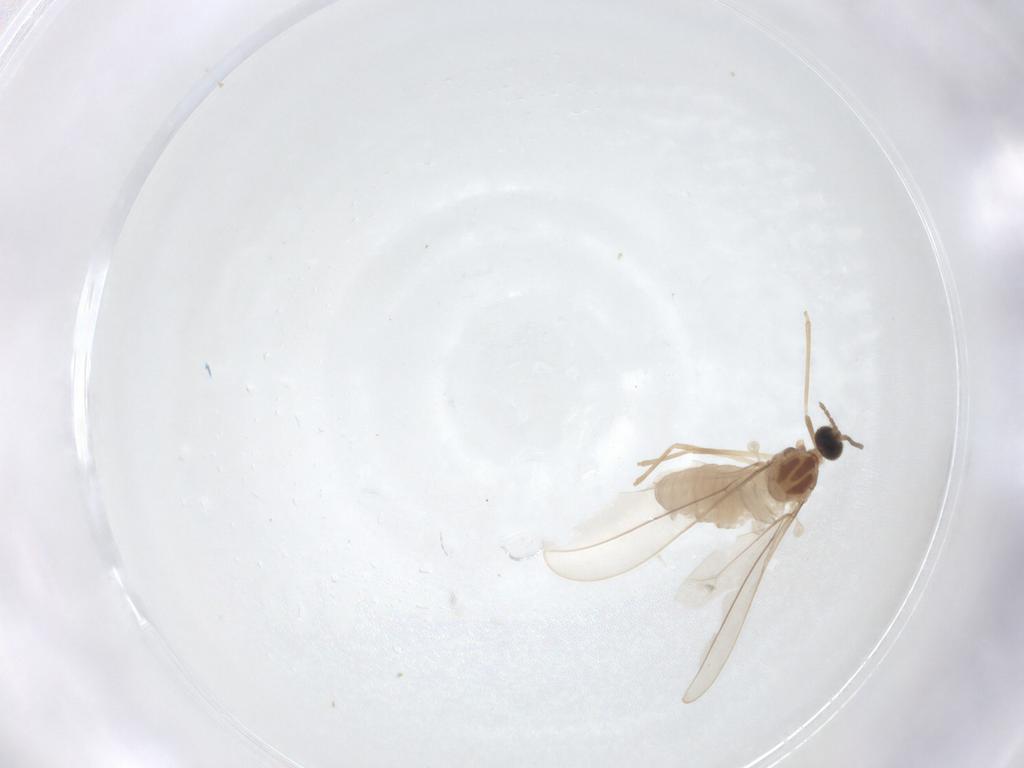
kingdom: Animalia
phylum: Arthropoda
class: Insecta
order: Diptera
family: Cecidomyiidae
